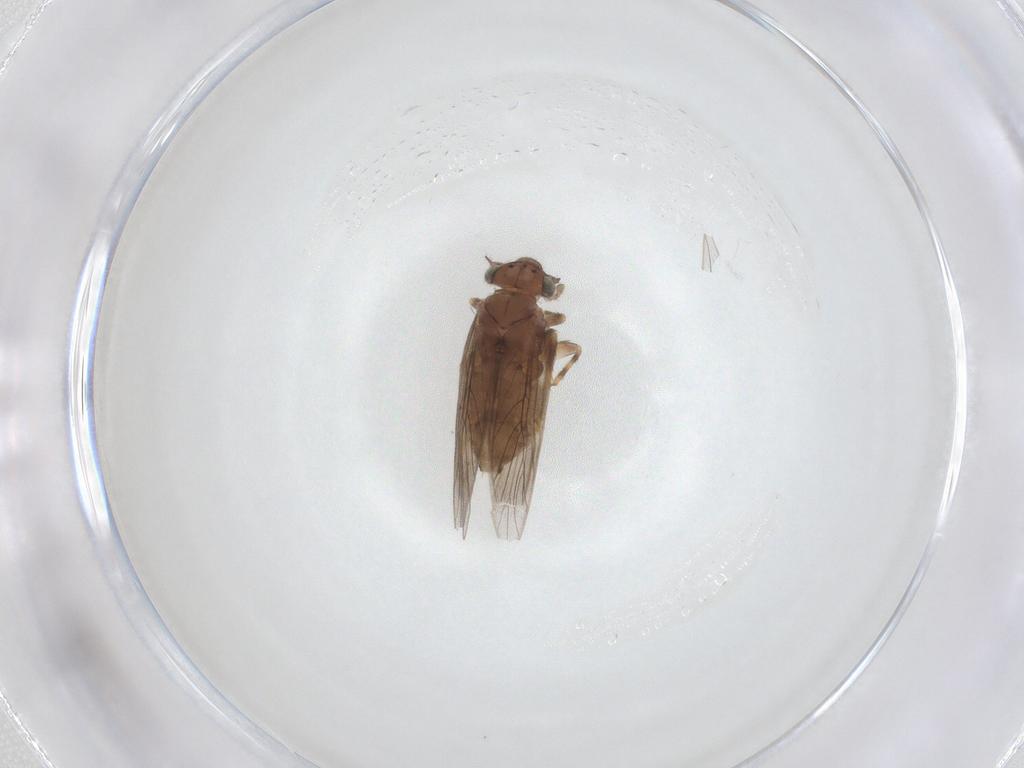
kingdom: Animalia
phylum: Arthropoda
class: Insecta
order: Psocodea
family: Lepidopsocidae
